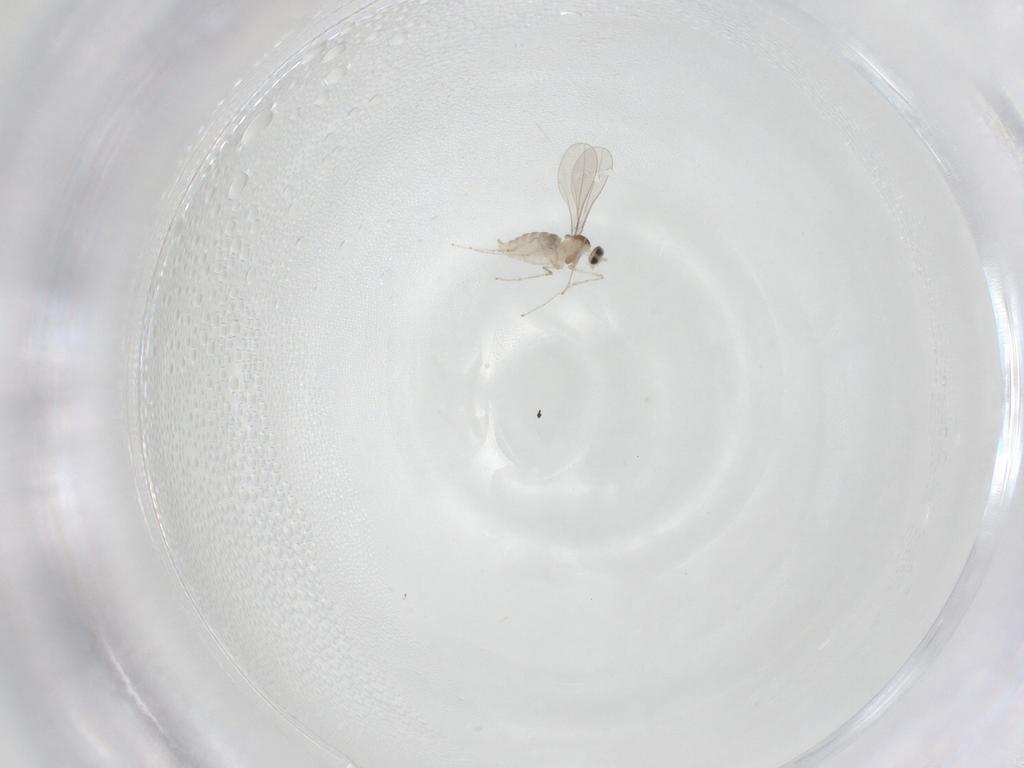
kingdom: Animalia
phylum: Arthropoda
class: Insecta
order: Diptera
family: Cecidomyiidae
